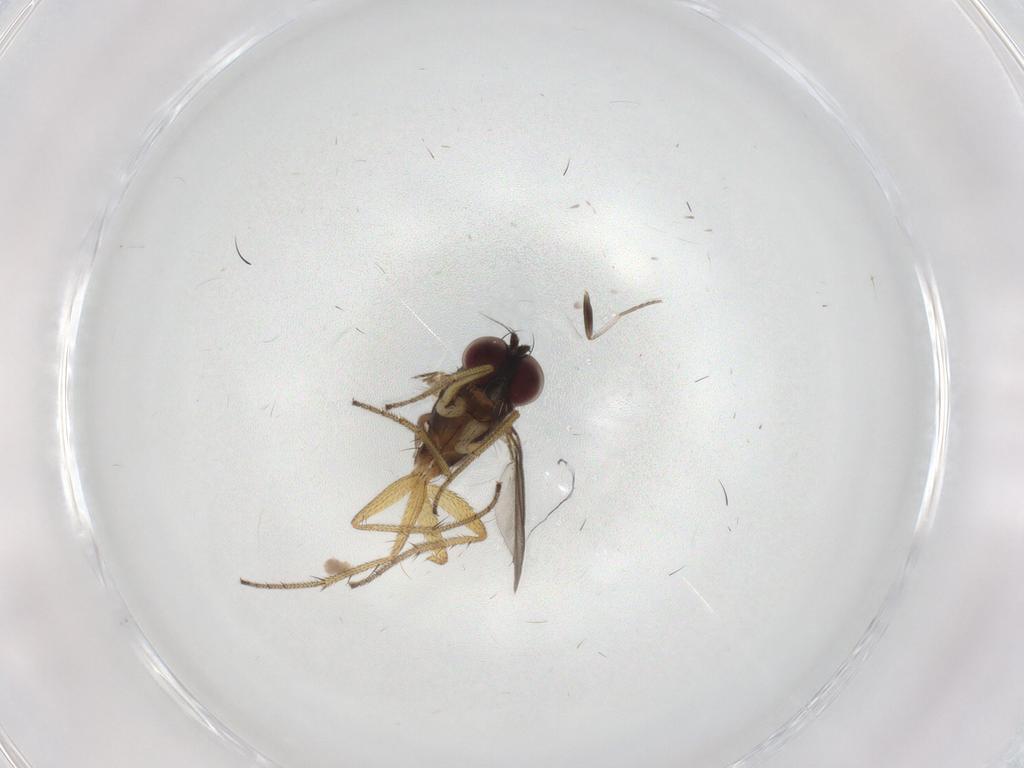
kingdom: Animalia
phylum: Arthropoda
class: Insecta
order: Diptera
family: Dolichopodidae
